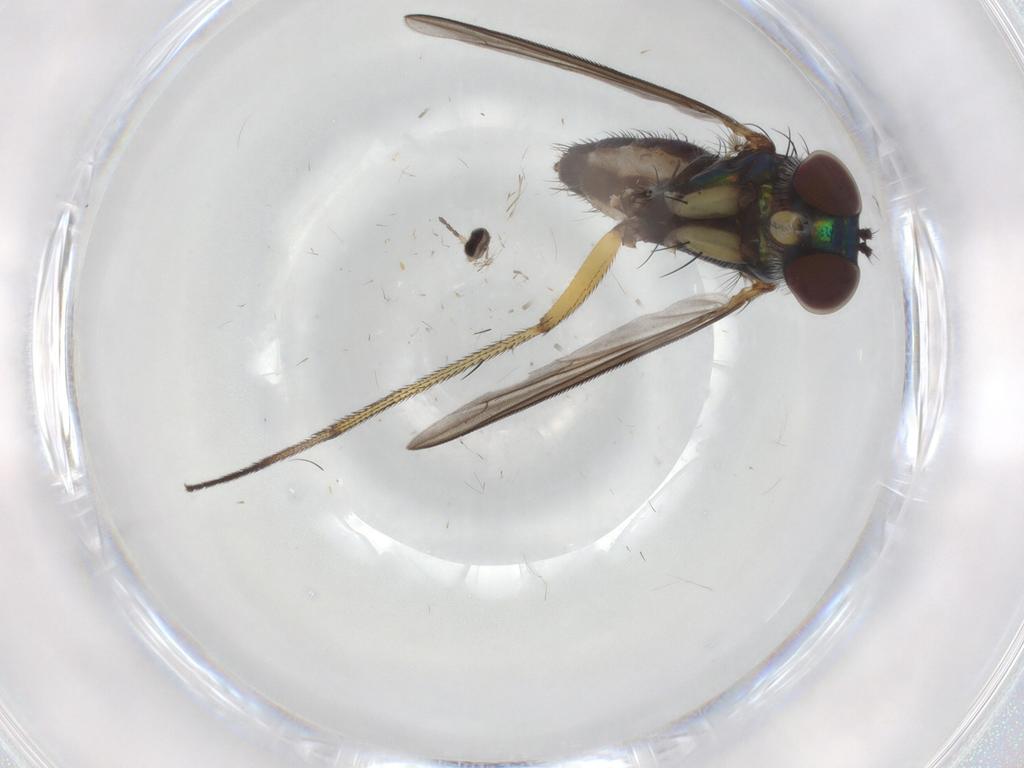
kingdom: Animalia
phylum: Arthropoda
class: Insecta
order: Diptera
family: Dolichopodidae
